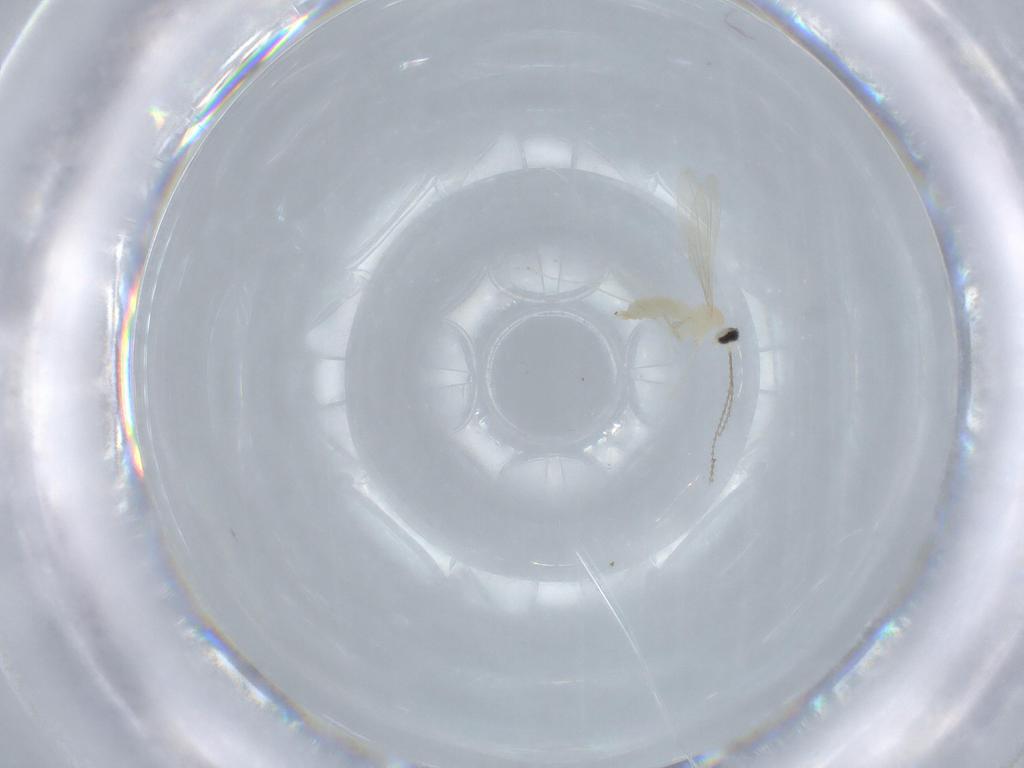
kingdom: Animalia
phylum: Arthropoda
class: Insecta
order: Diptera
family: Cecidomyiidae
